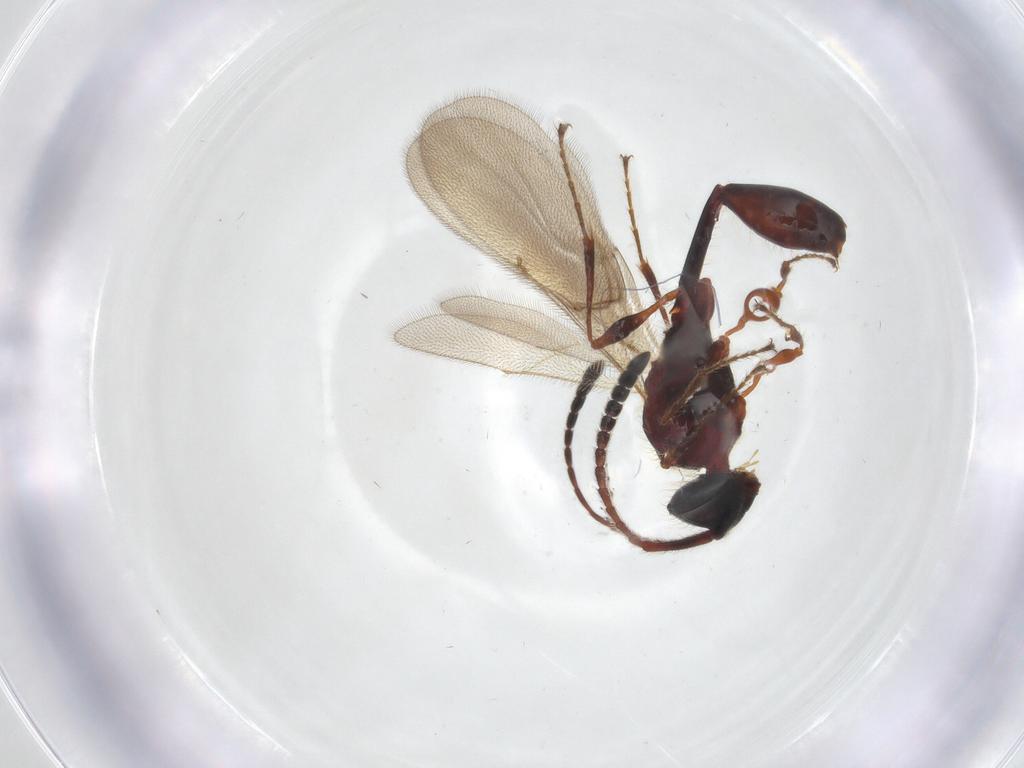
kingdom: Animalia
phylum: Arthropoda
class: Insecta
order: Hymenoptera
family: Diapriidae
